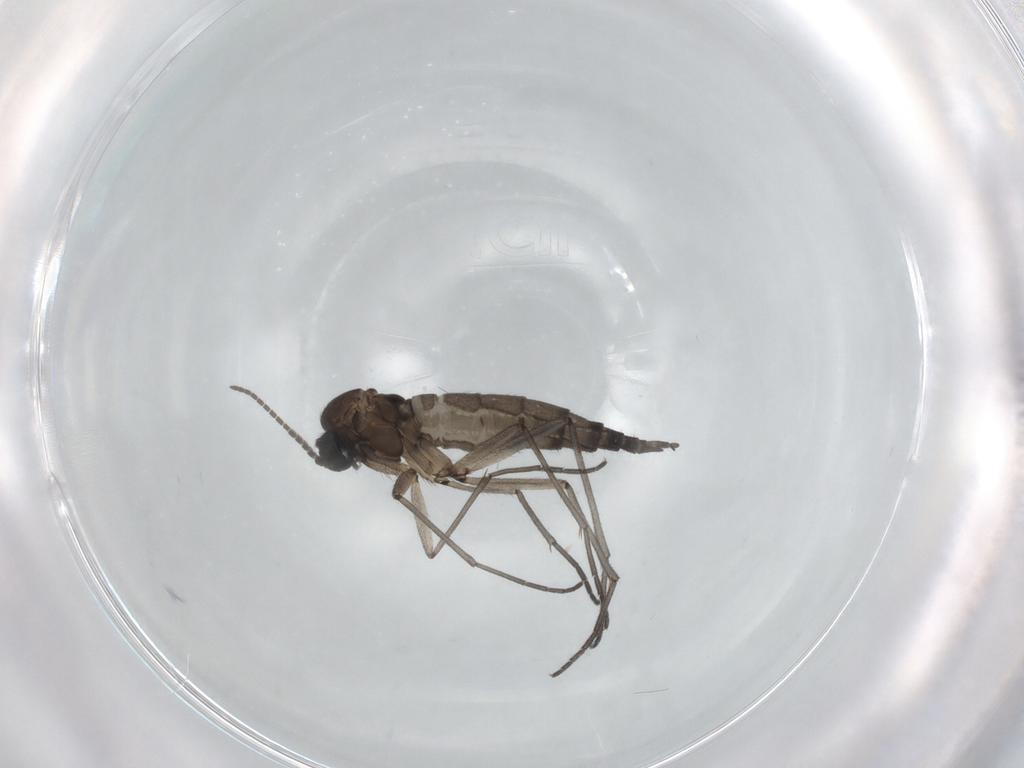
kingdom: Animalia
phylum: Arthropoda
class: Insecta
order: Diptera
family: Sciaridae
